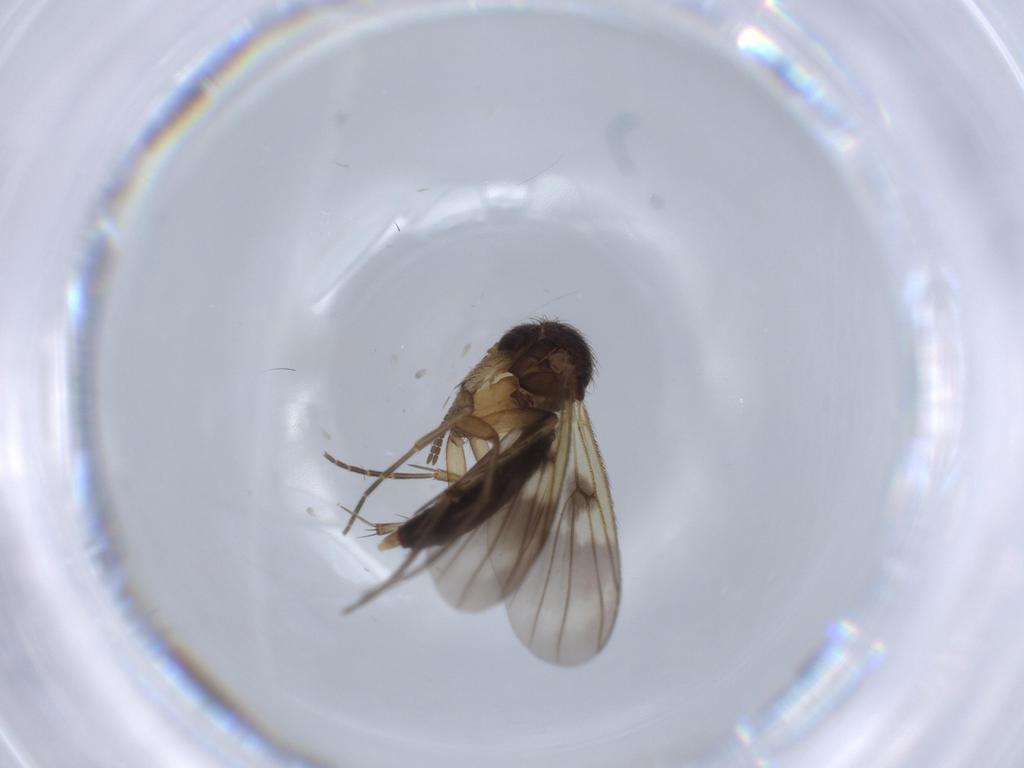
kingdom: Animalia
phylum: Arthropoda
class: Insecta
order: Diptera
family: Mycetophilidae
